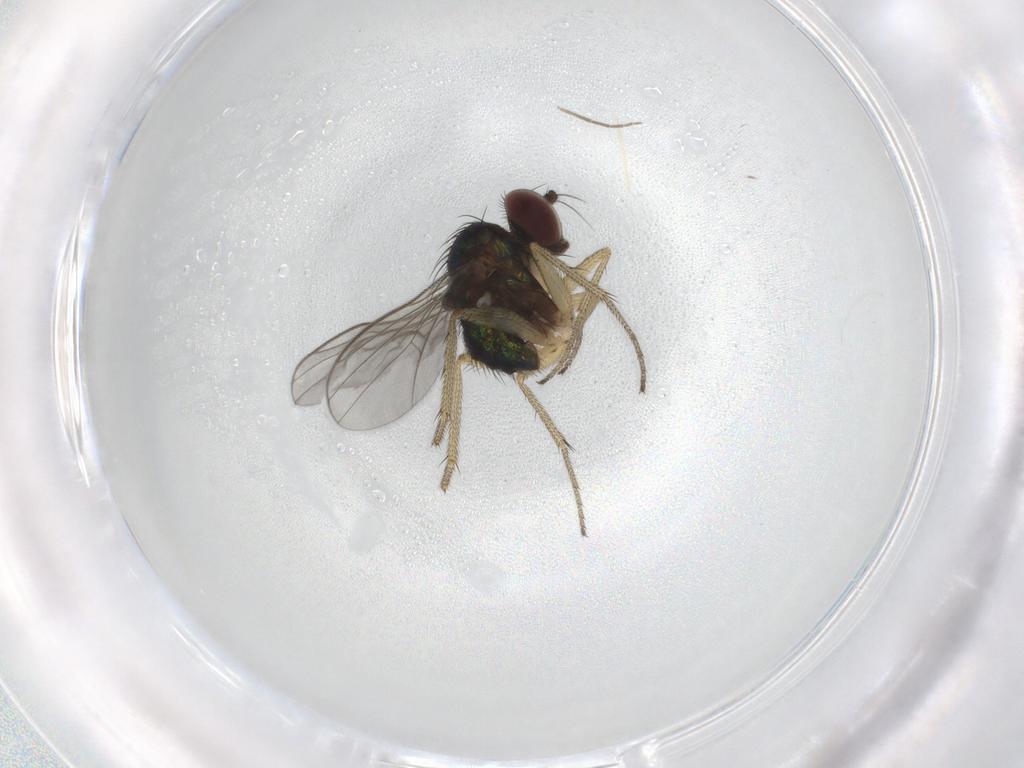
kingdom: Animalia
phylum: Arthropoda
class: Insecta
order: Diptera
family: Dolichopodidae
